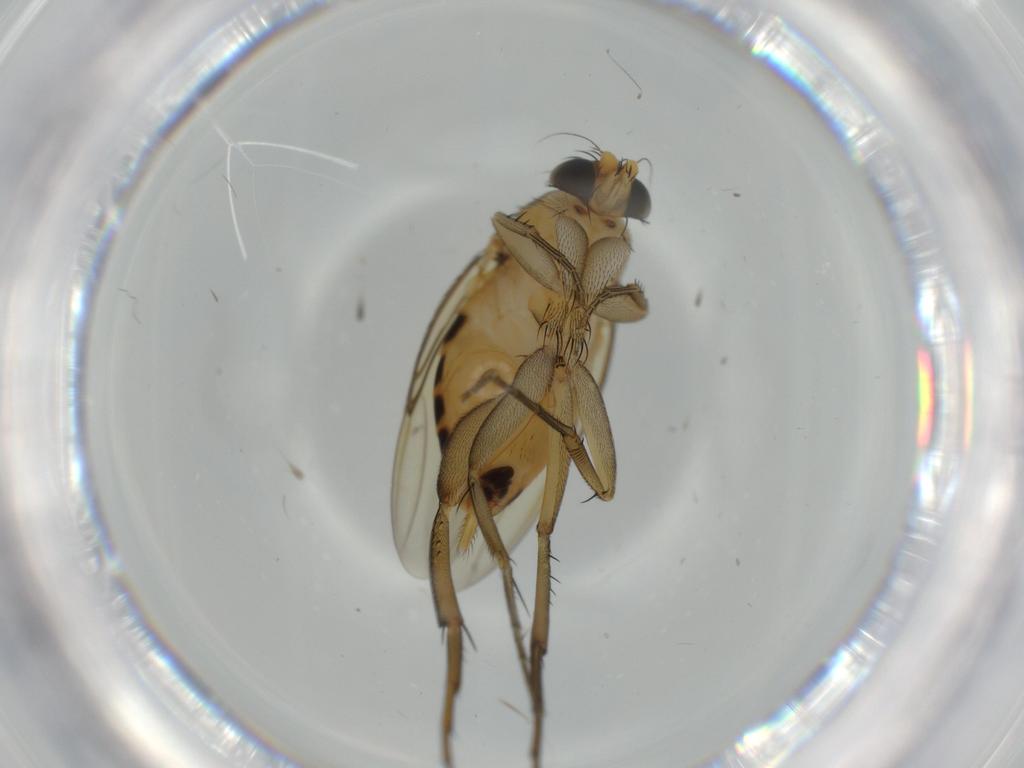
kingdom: Animalia
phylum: Arthropoda
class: Insecta
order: Diptera
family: Phoridae
